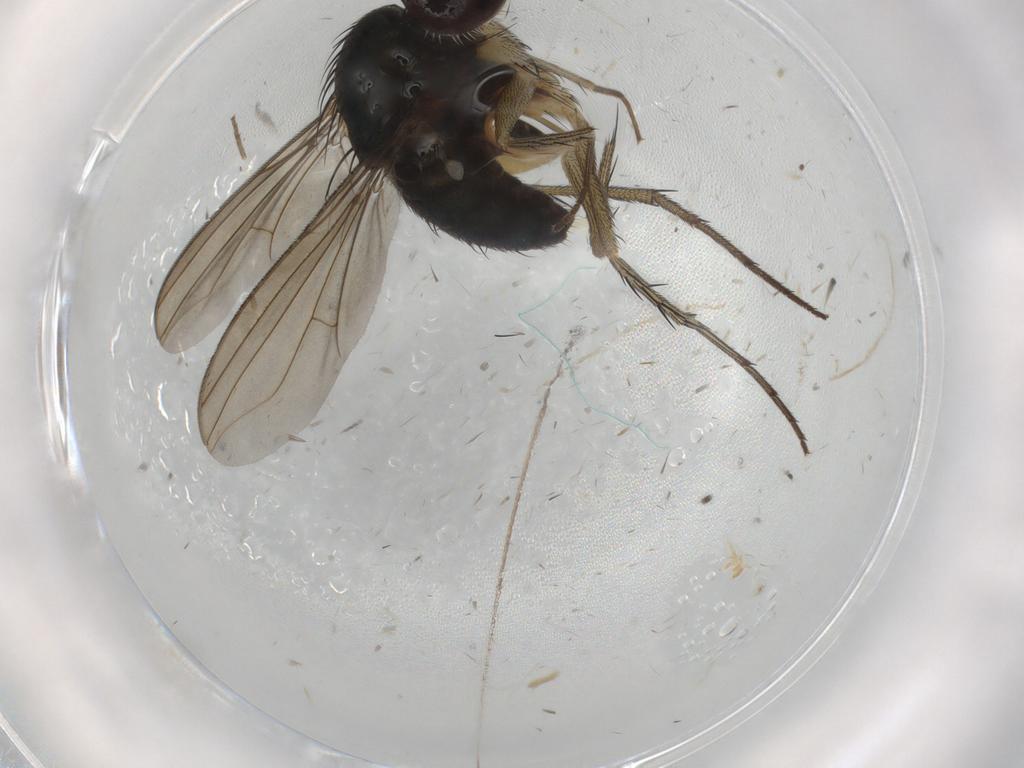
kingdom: Animalia
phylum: Arthropoda
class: Insecta
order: Diptera
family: Dolichopodidae
